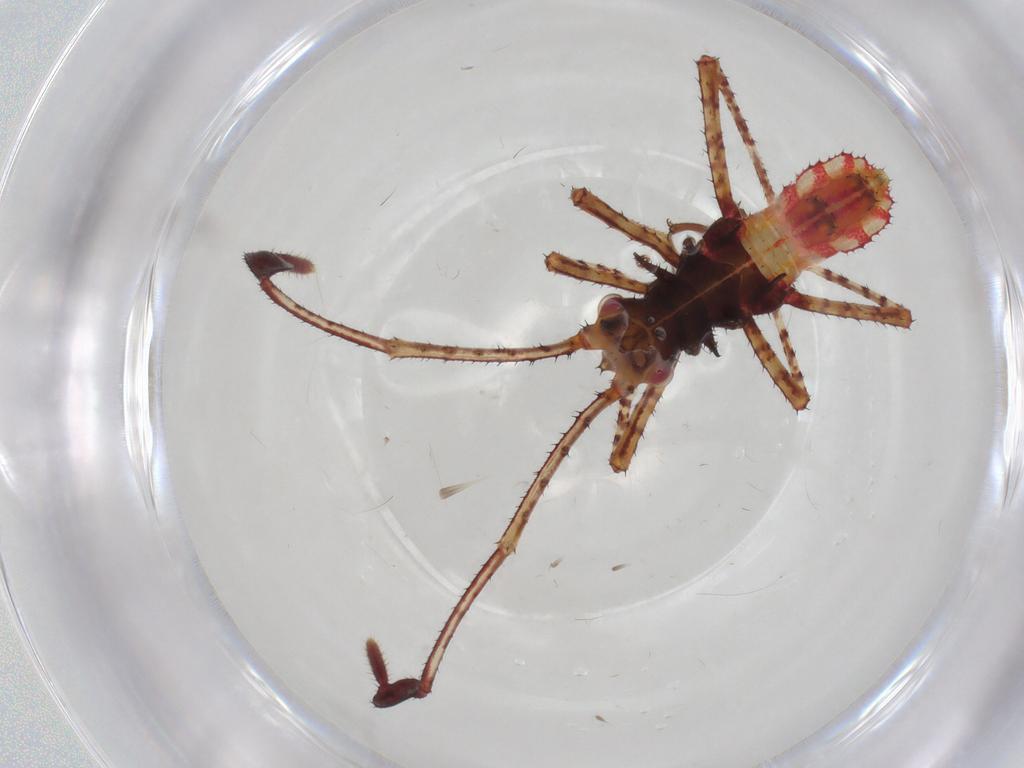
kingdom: Animalia
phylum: Arthropoda
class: Insecta
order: Hemiptera
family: Coreidae
